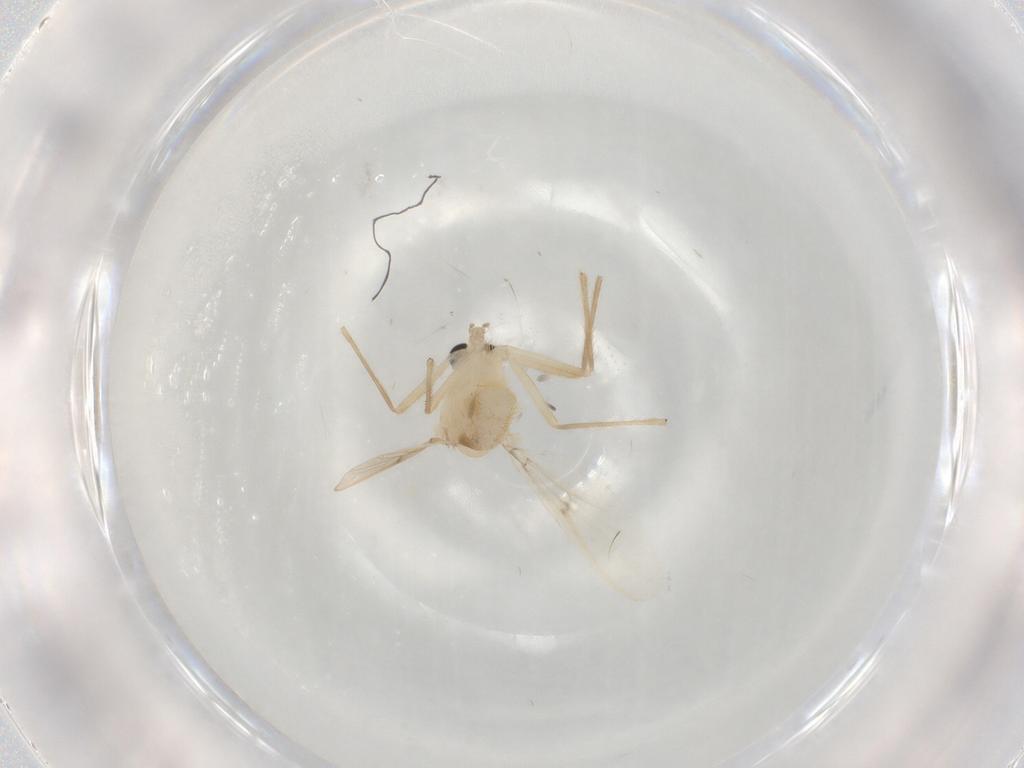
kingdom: Animalia
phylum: Arthropoda
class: Insecta
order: Diptera
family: Chironomidae
